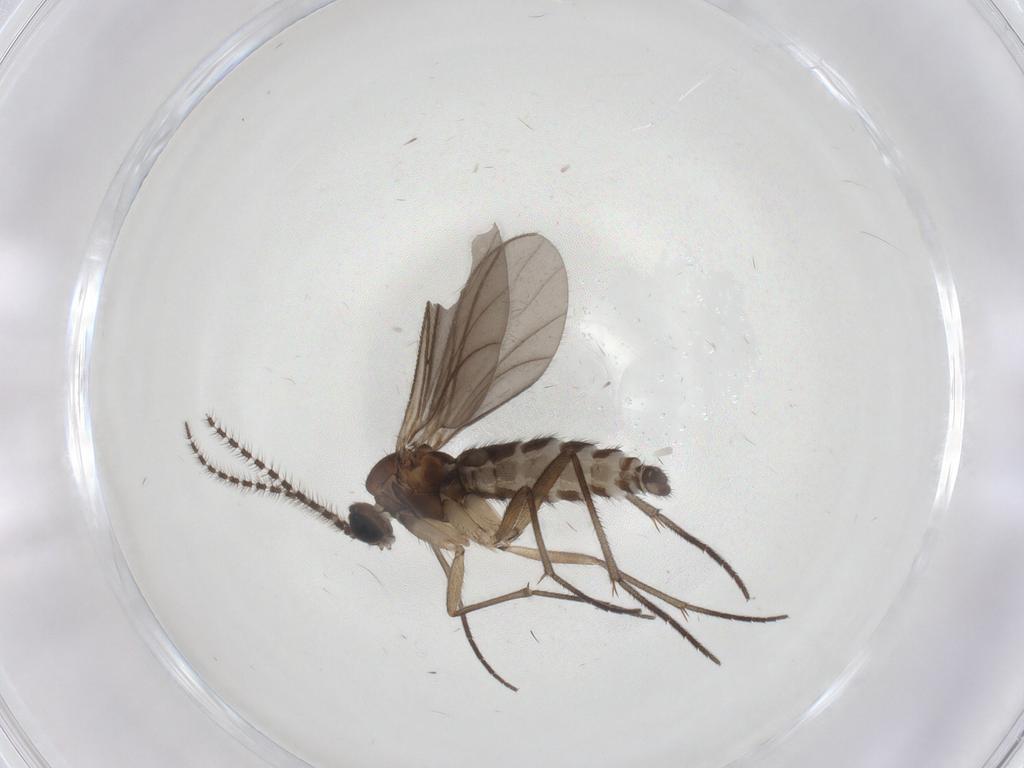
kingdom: Animalia
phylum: Arthropoda
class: Insecta
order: Diptera
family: Sciaridae
